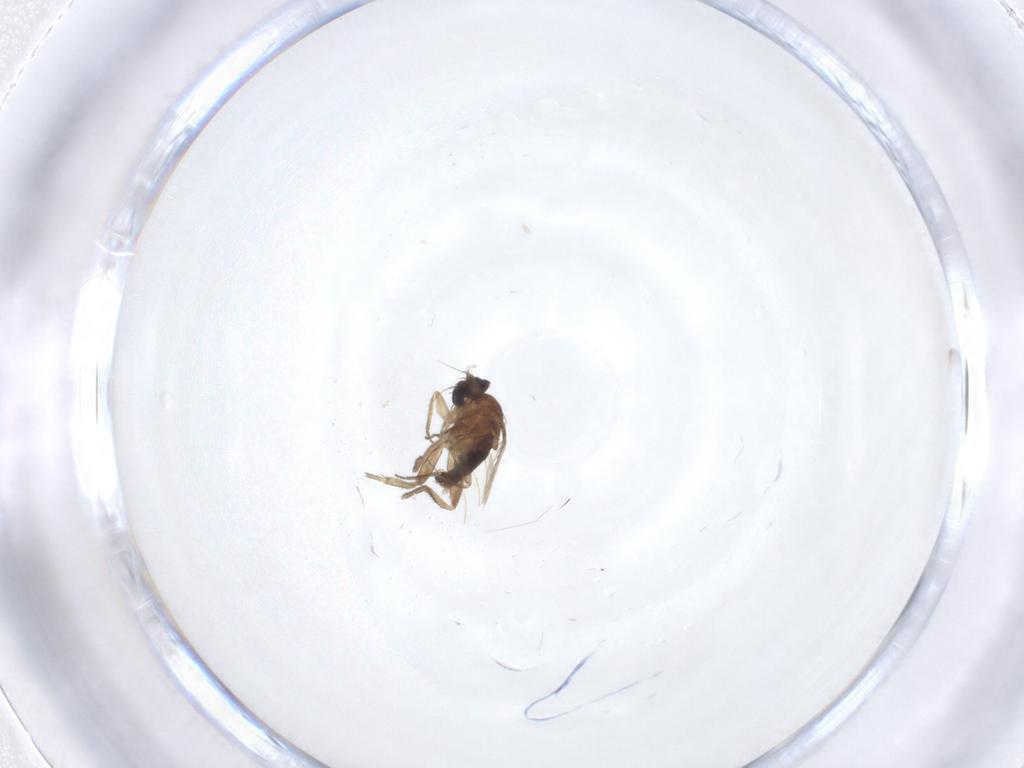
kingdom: Animalia
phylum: Arthropoda
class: Insecta
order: Diptera
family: Phoridae
